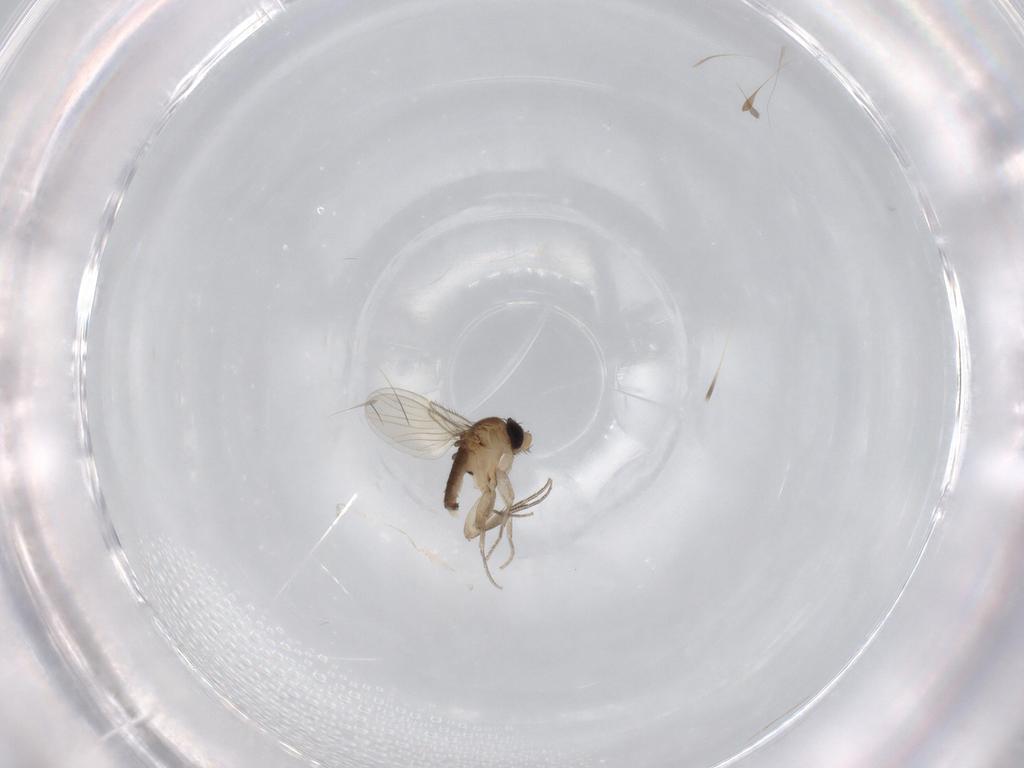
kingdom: Animalia
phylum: Arthropoda
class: Insecta
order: Diptera
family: Phoridae
